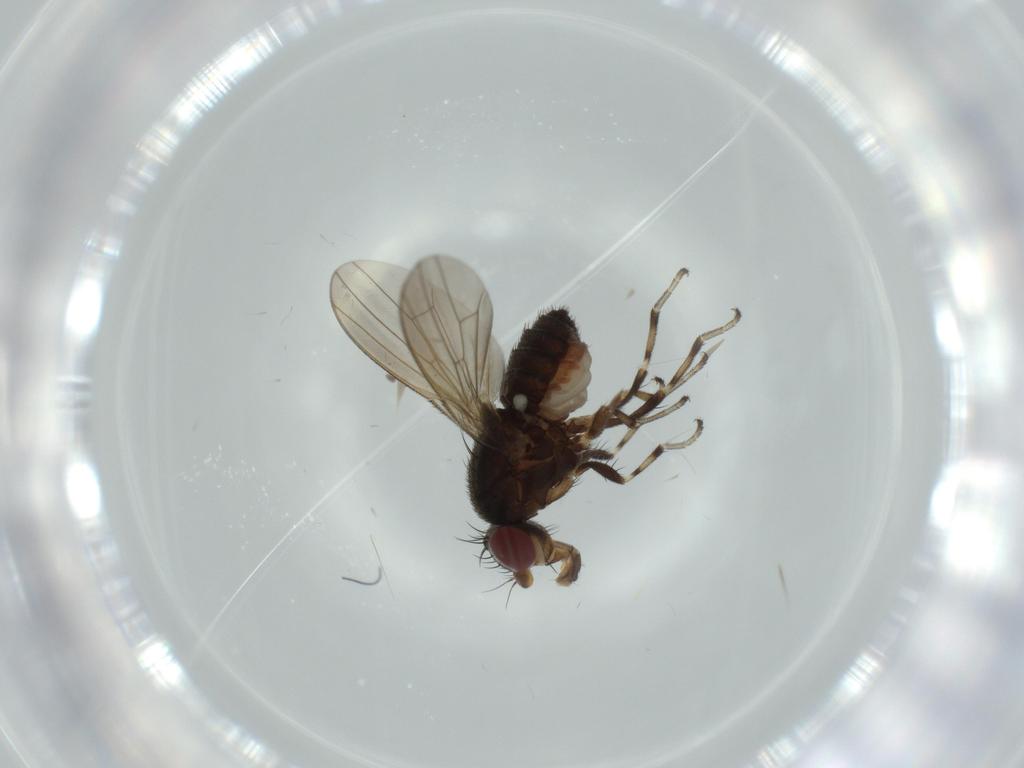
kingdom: Animalia
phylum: Arthropoda
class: Insecta
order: Diptera
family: Heleomyzidae
